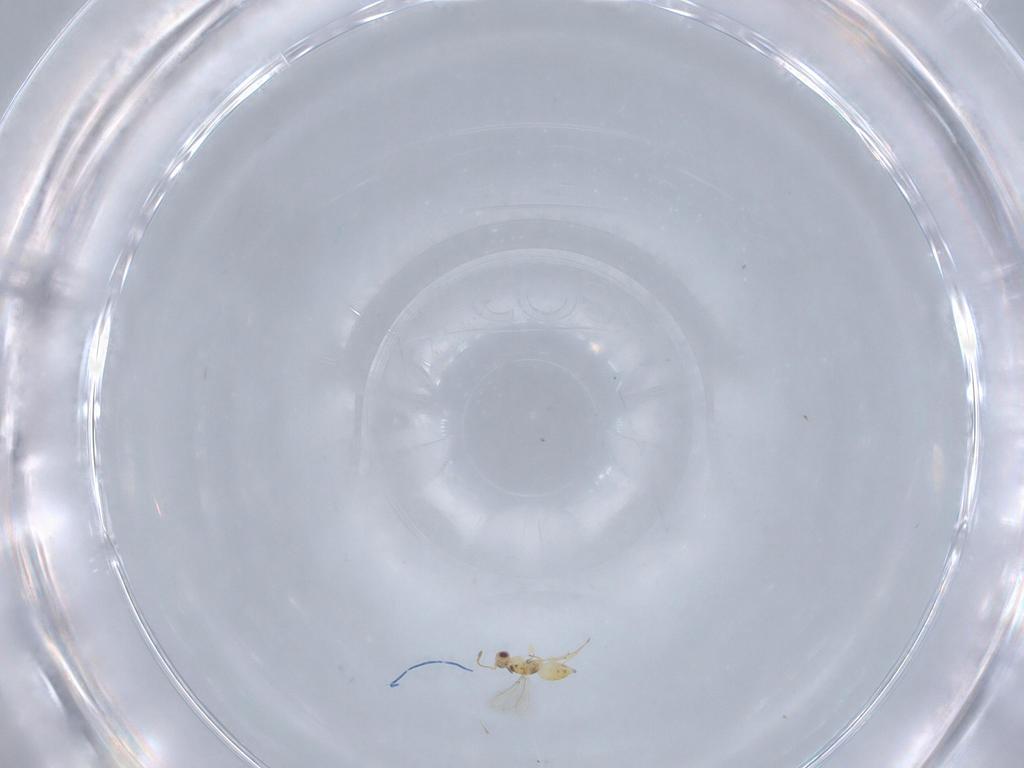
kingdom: Animalia
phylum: Arthropoda
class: Insecta
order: Hymenoptera
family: Mymaridae
